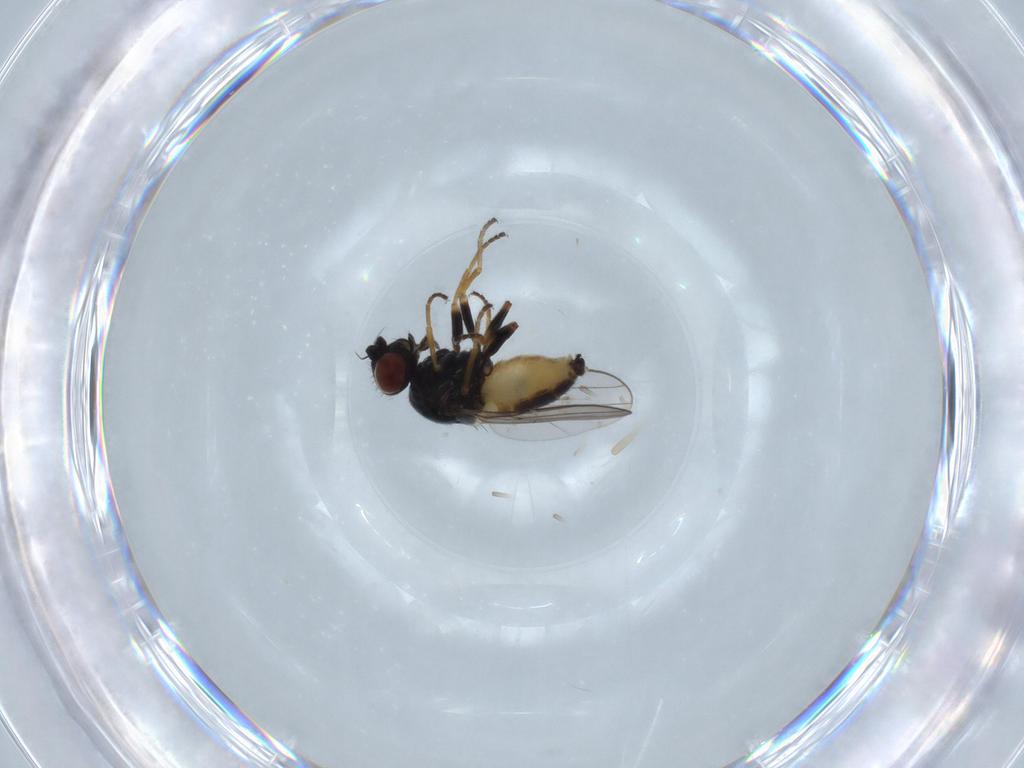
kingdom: Animalia
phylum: Arthropoda
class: Insecta
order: Diptera
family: Chloropidae
